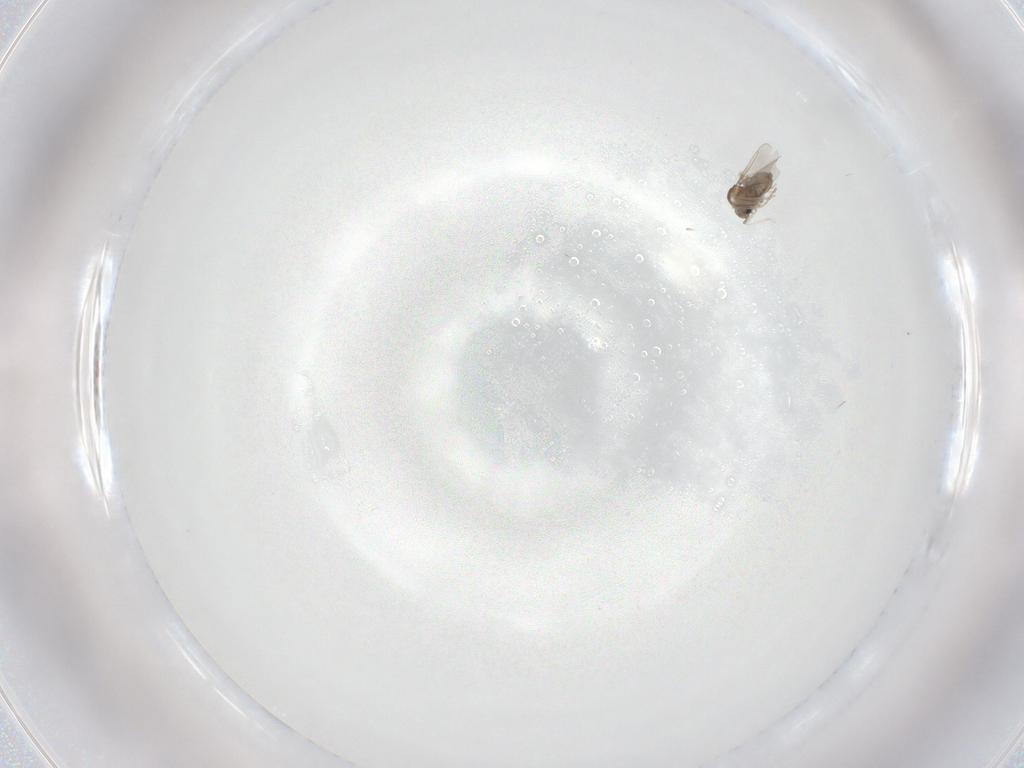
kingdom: Animalia
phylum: Arthropoda
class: Insecta
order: Diptera
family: Cecidomyiidae
